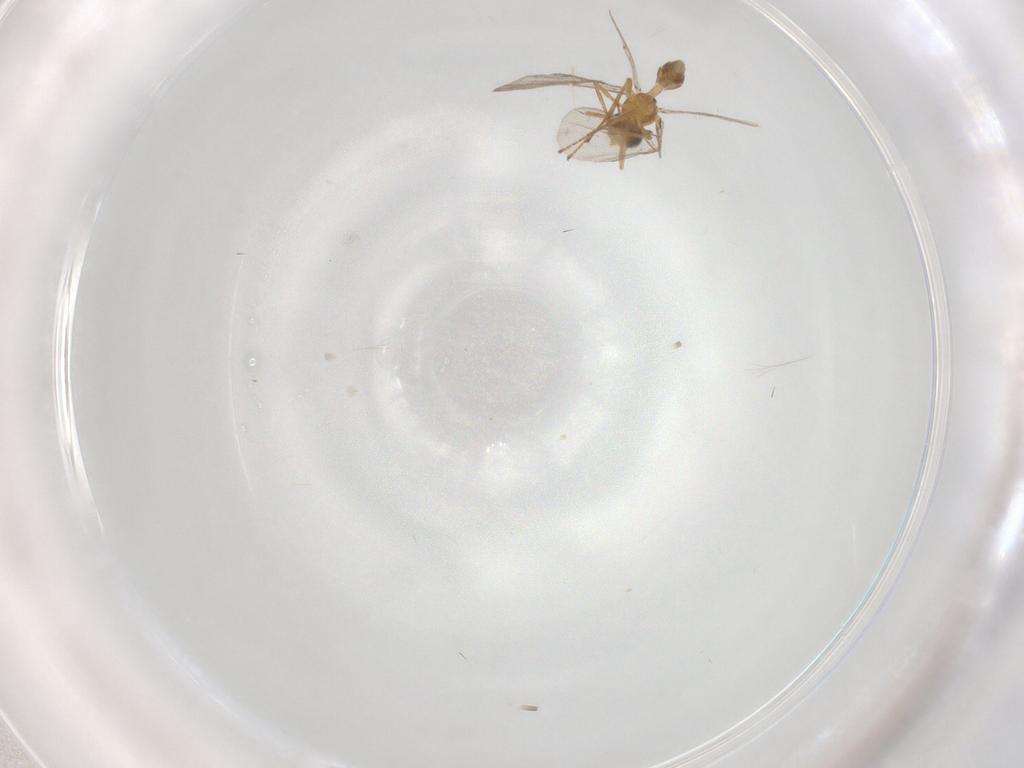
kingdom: Animalia
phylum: Arthropoda
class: Insecta
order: Hymenoptera
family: Braconidae
